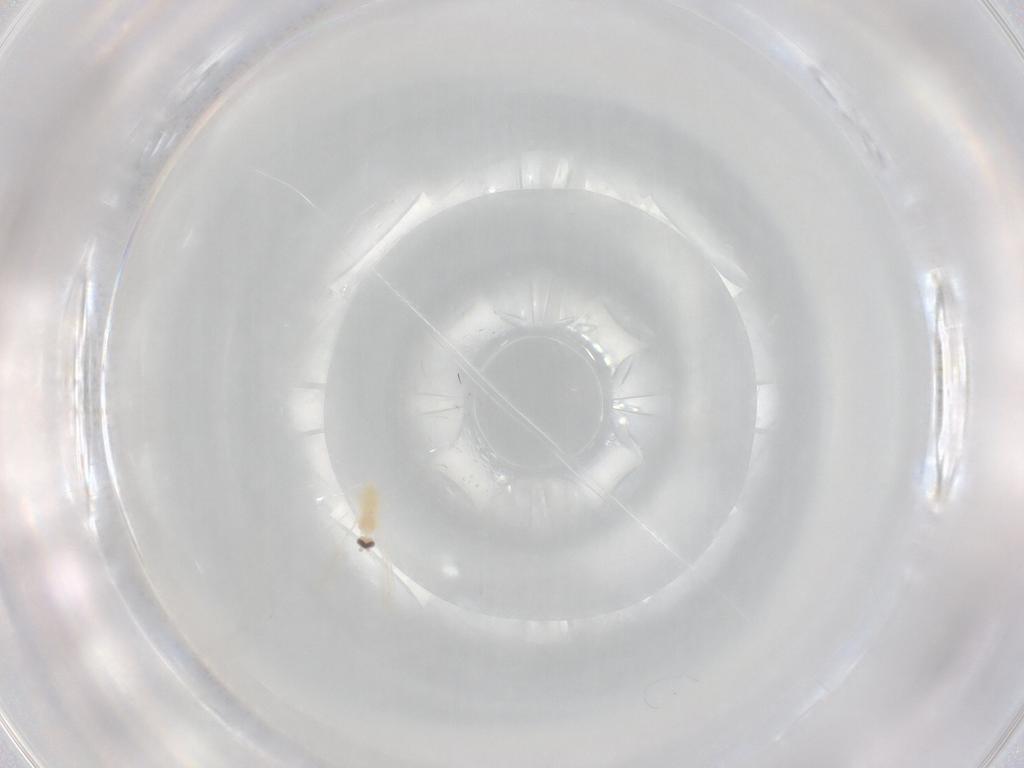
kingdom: Animalia
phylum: Arthropoda
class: Insecta
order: Diptera
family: Cecidomyiidae
